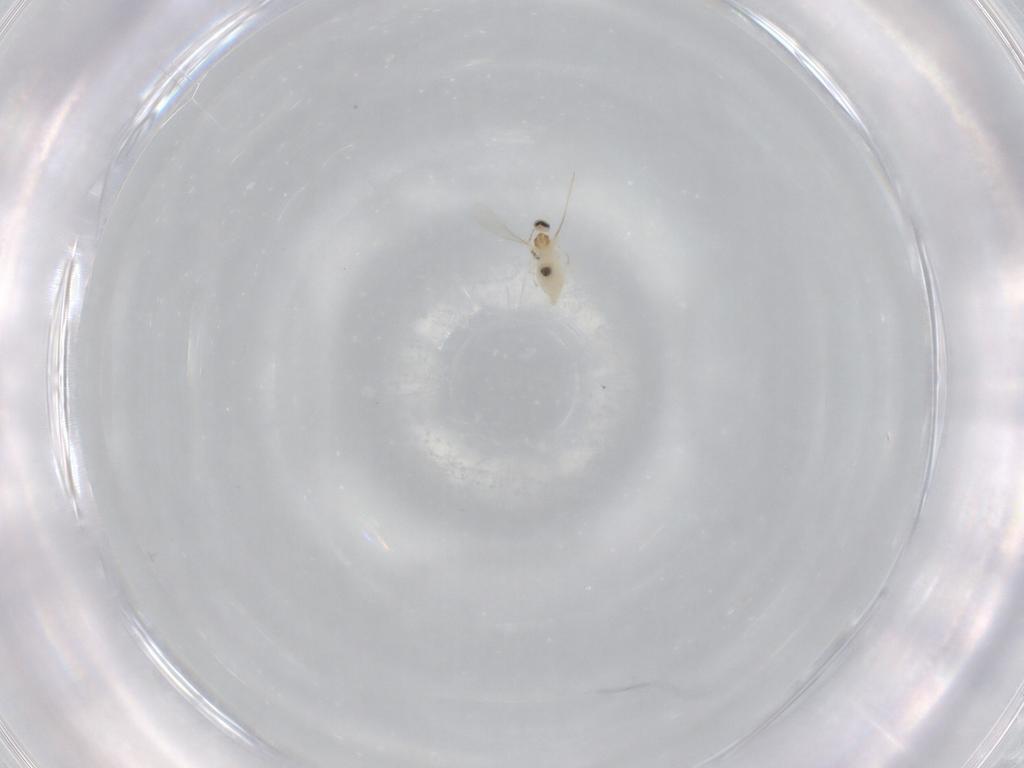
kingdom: Animalia
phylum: Arthropoda
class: Insecta
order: Diptera
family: Cecidomyiidae
